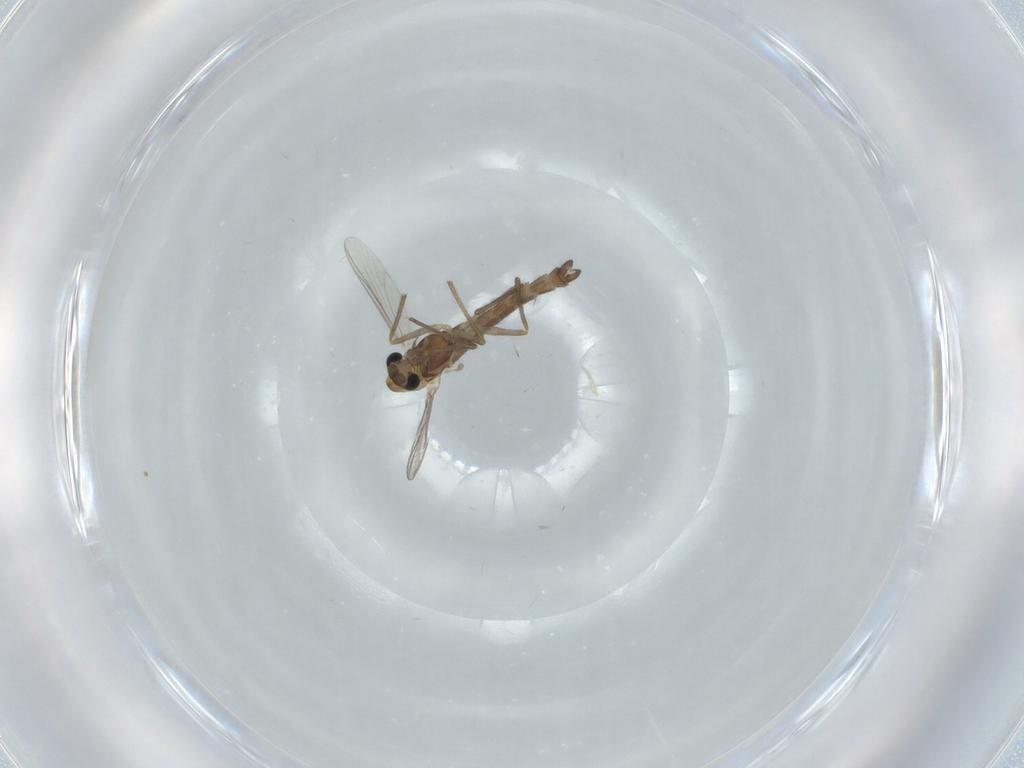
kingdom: Animalia
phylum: Arthropoda
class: Insecta
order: Diptera
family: Chironomidae
